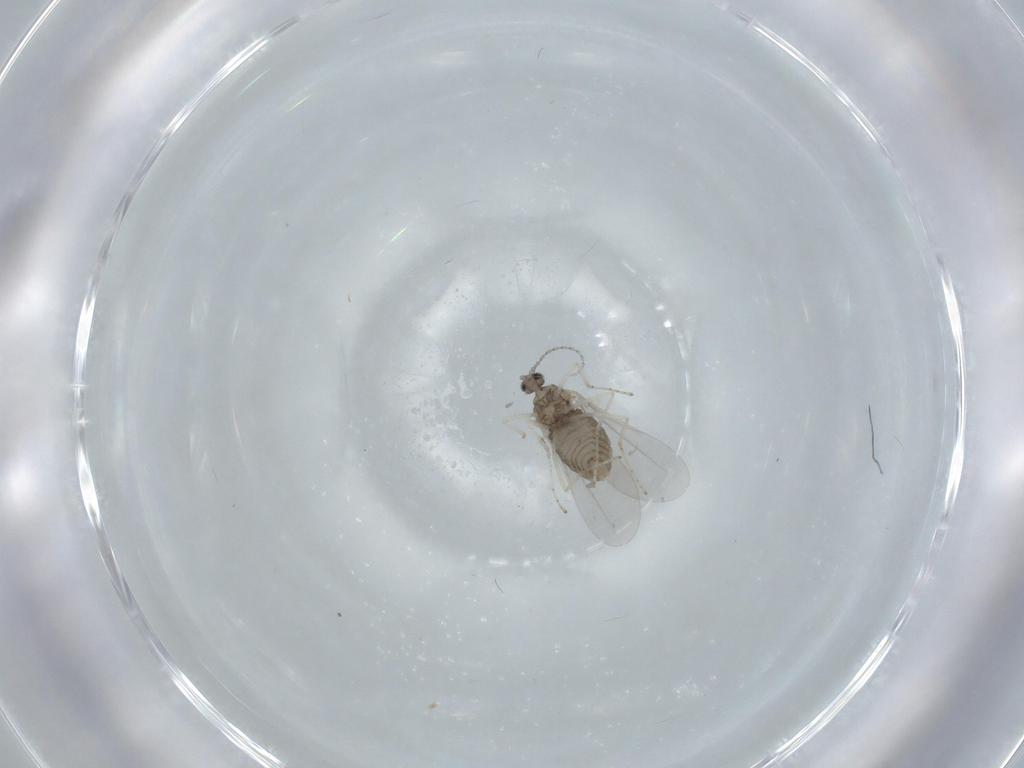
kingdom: Animalia
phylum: Arthropoda
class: Insecta
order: Diptera
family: Cecidomyiidae
